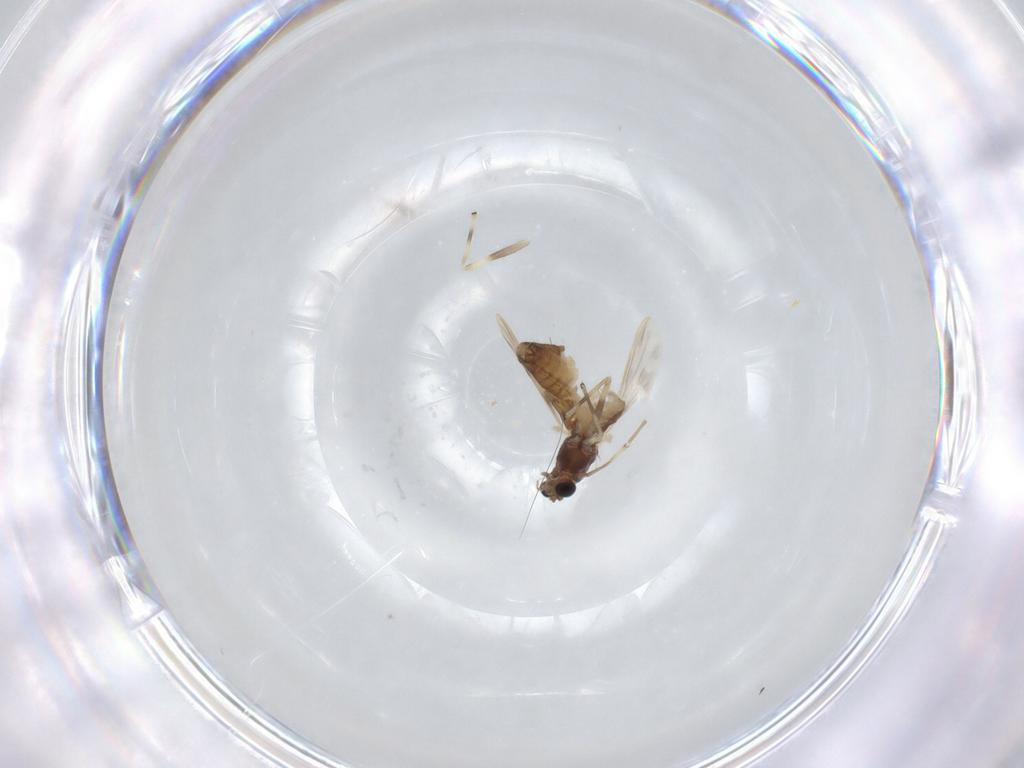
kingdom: Animalia
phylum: Arthropoda
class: Insecta
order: Diptera
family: Chironomidae
